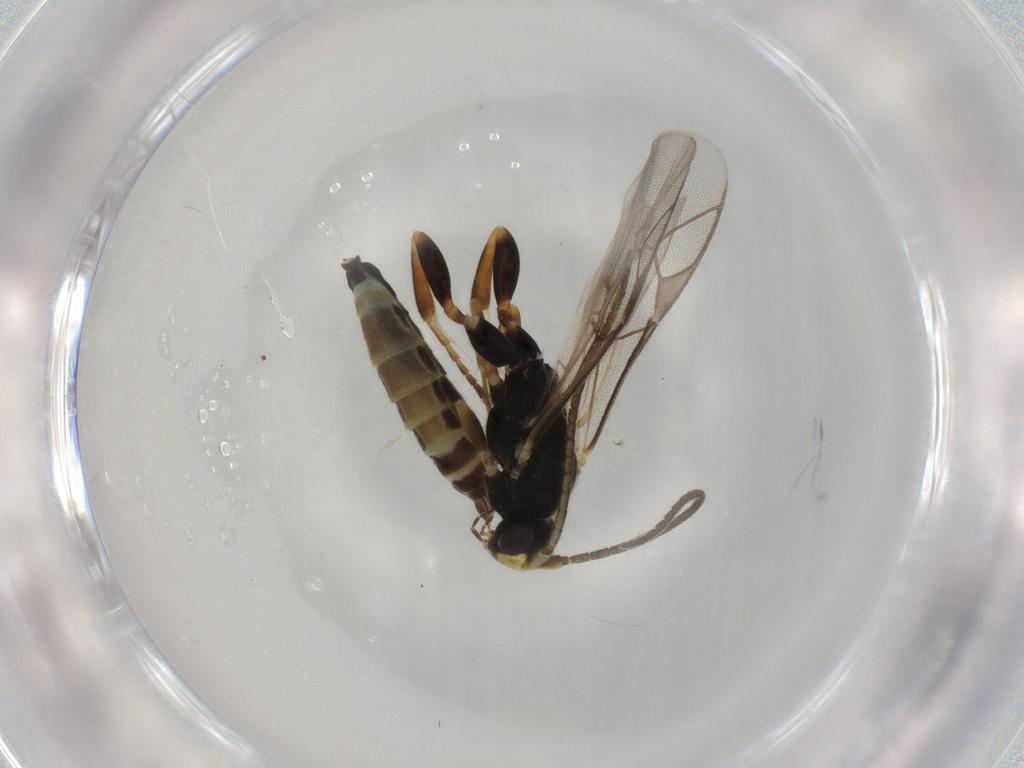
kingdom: Animalia
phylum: Arthropoda
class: Insecta
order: Hymenoptera
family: Ichneumonidae
